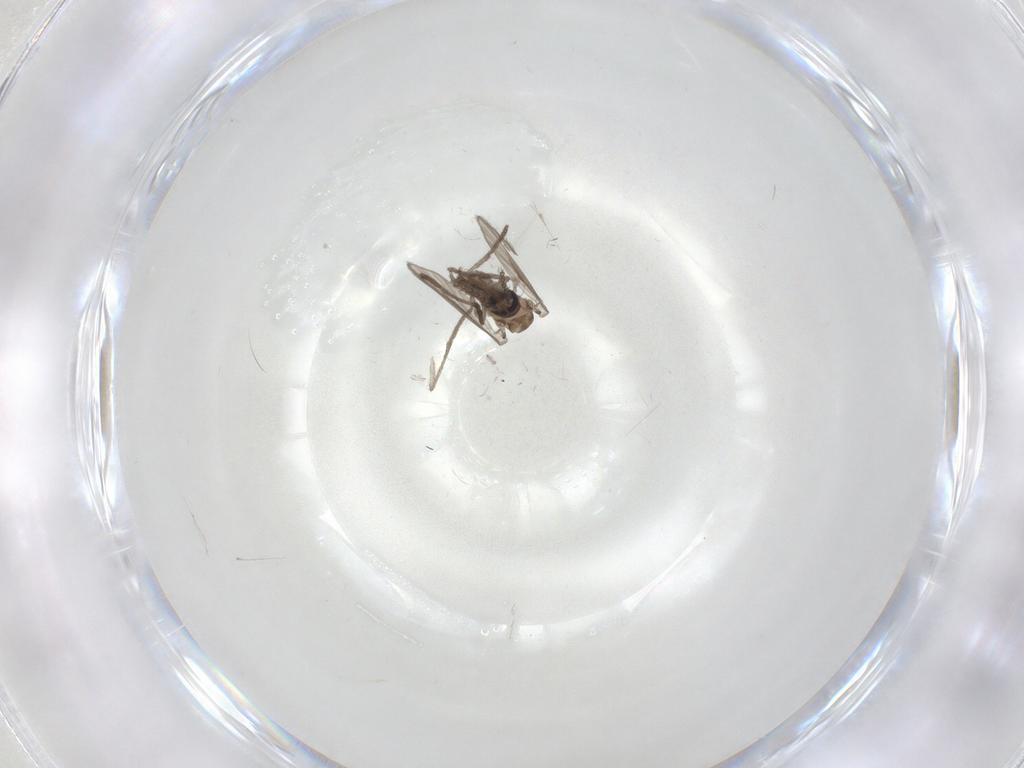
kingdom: Animalia
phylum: Arthropoda
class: Insecta
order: Diptera
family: Psychodidae
